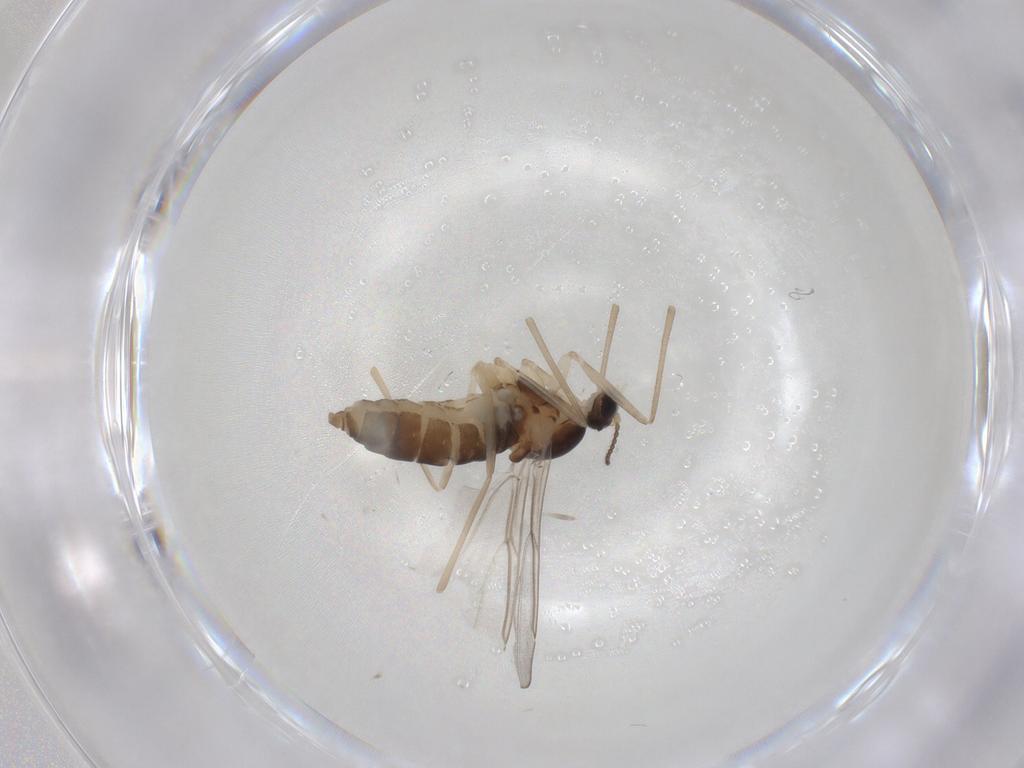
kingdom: Animalia
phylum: Arthropoda
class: Insecta
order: Diptera
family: Cecidomyiidae
